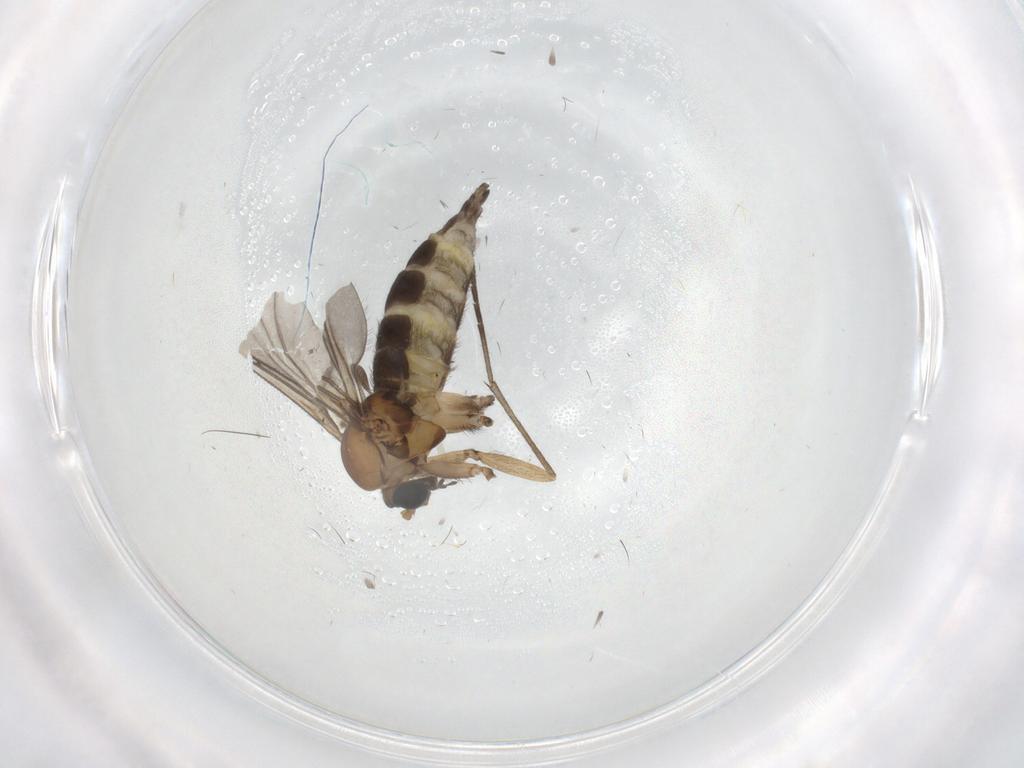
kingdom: Animalia
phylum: Arthropoda
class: Insecta
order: Diptera
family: Sciaridae
